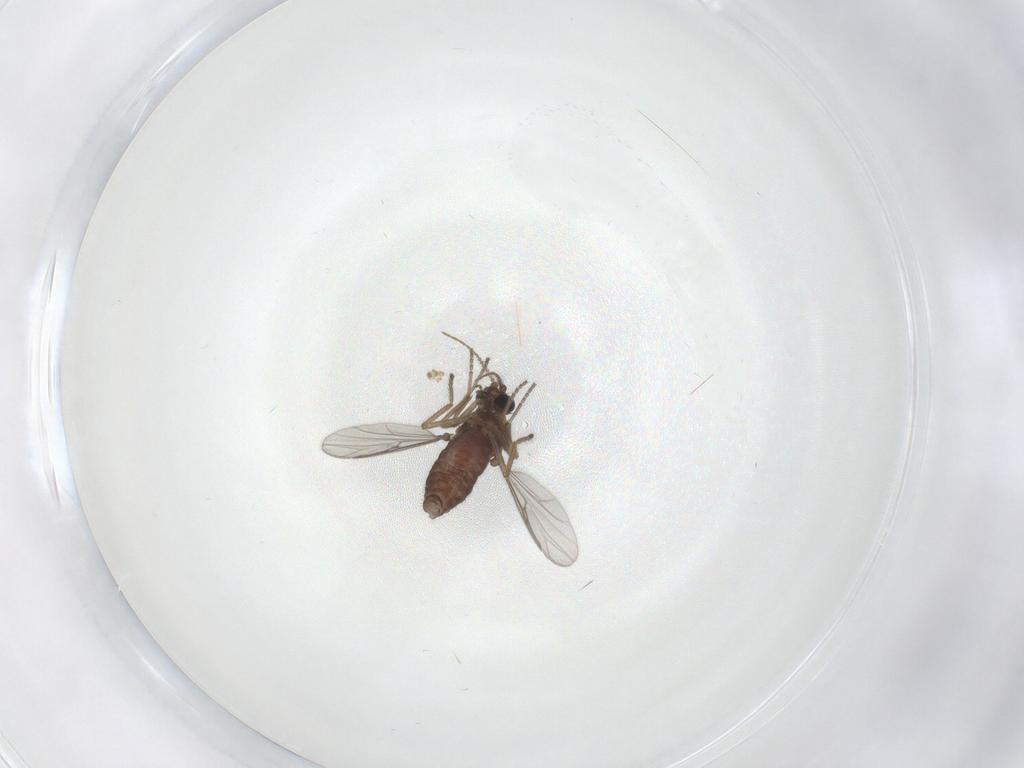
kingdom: Animalia
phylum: Arthropoda
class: Insecta
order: Diptera
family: Ceratopogonidae
